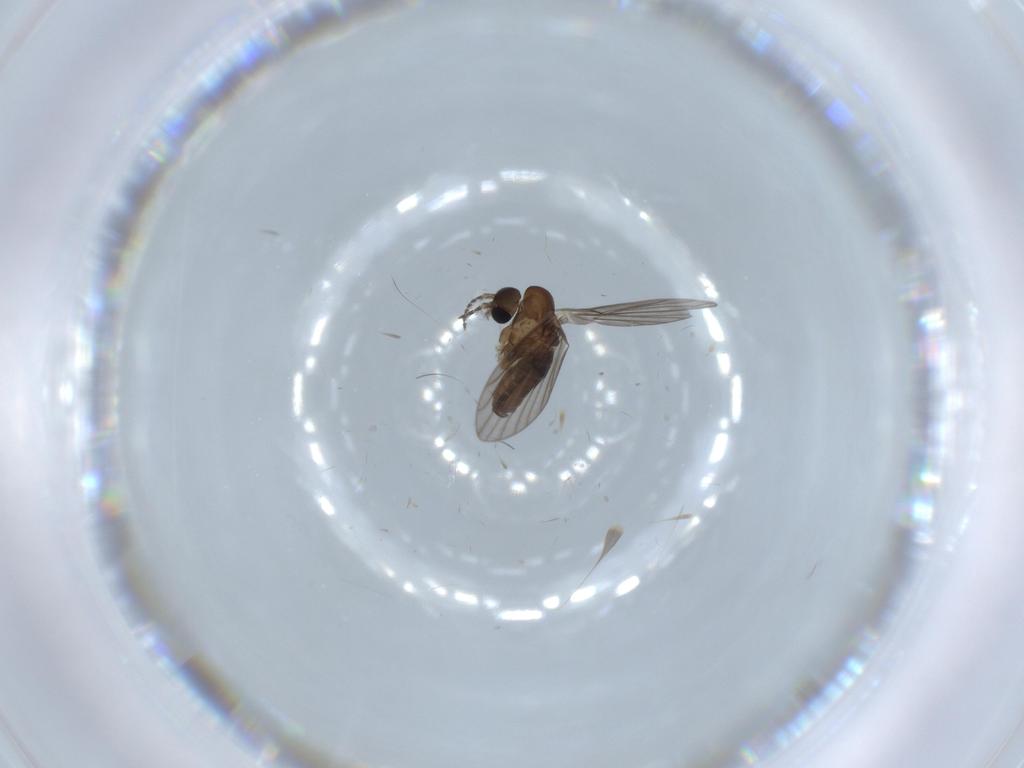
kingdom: Animalia
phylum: Arthropoda
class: Insecta
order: Diptera
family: Psychodidae
